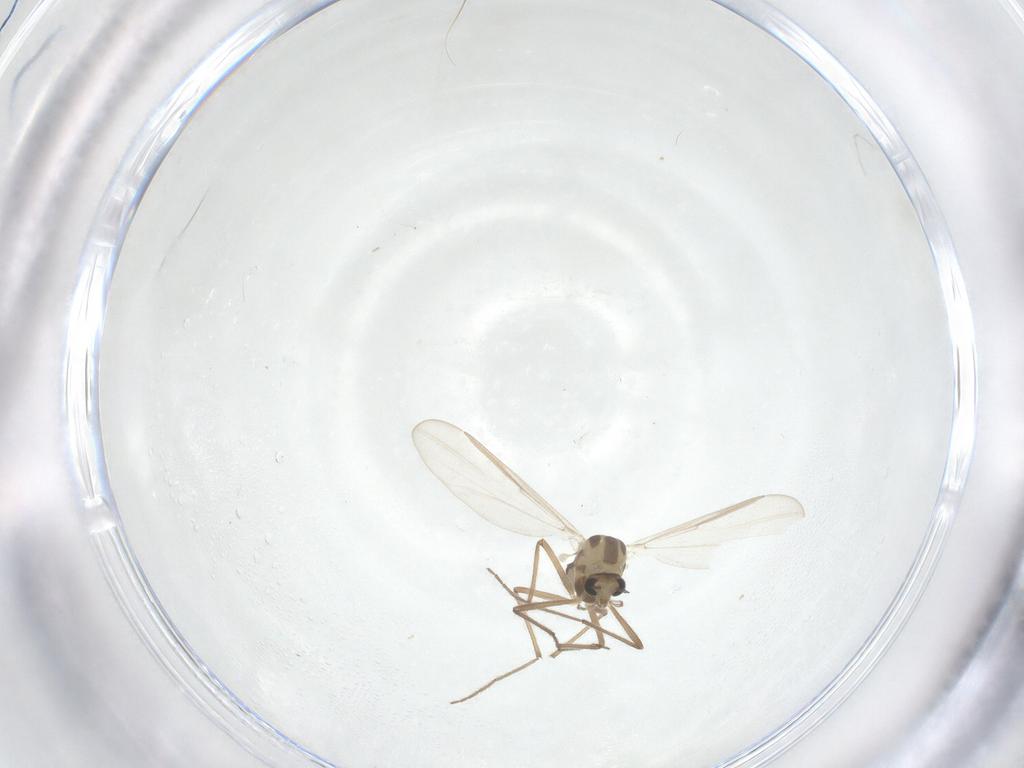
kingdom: Animalia
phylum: Arthropoda
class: Insecta
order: Diptera
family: Chironomidae
